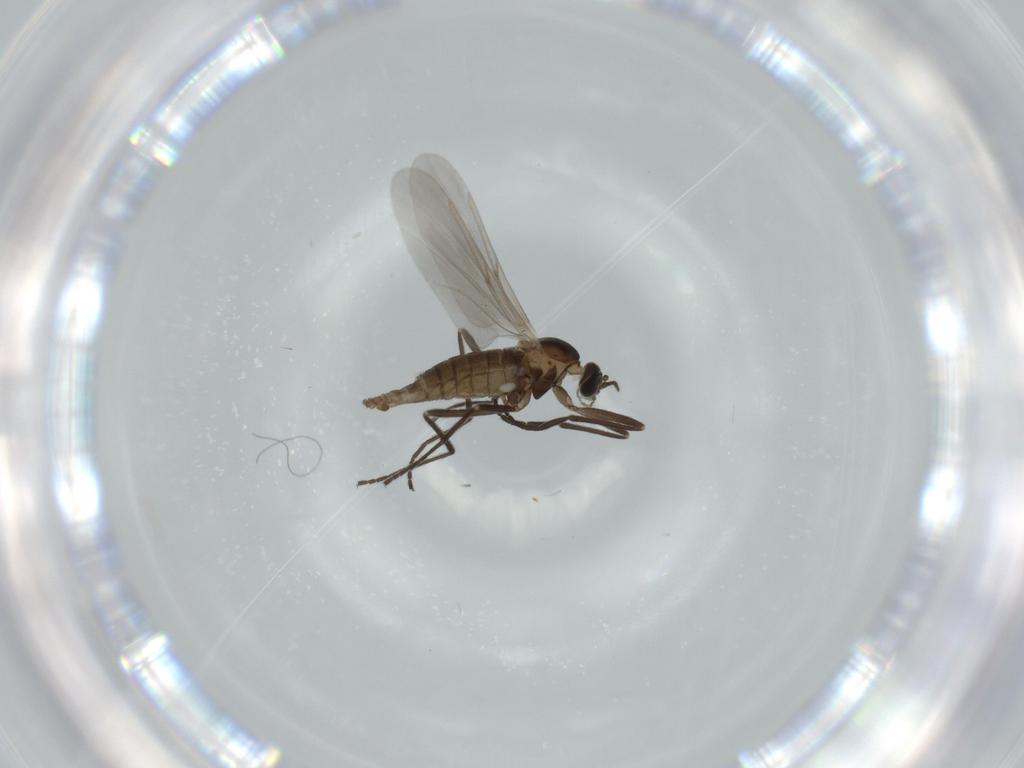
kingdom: Animalia
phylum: Arthropoda
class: Insecta
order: Diptera
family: Cecidomyiidae
